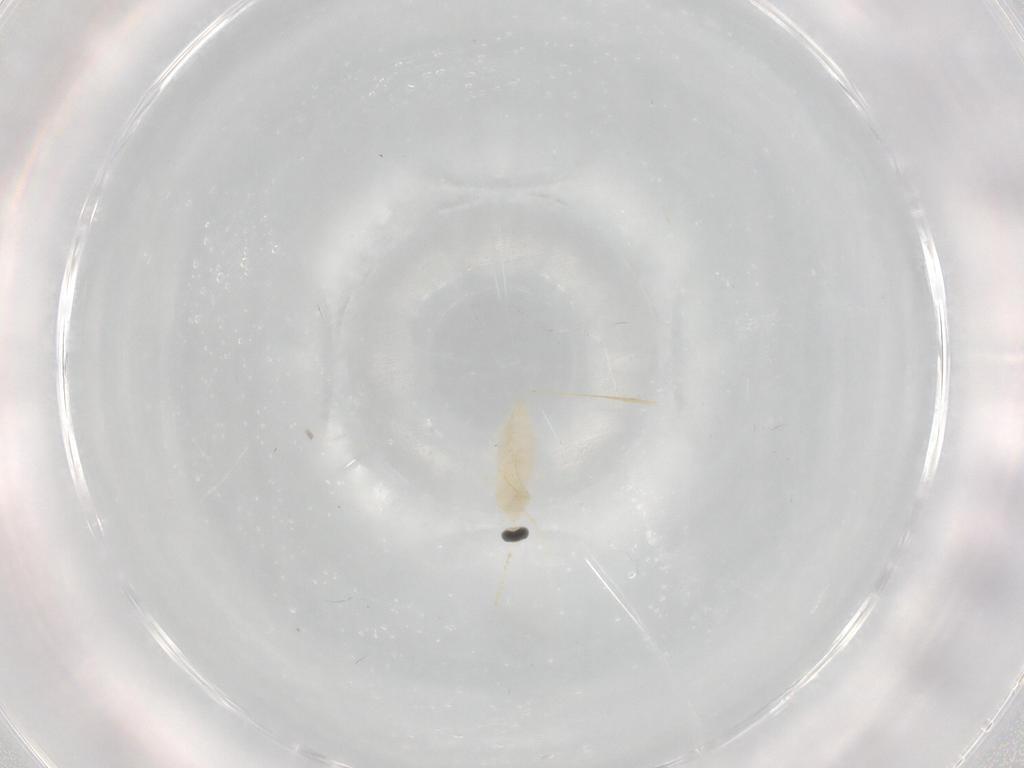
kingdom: Animalia
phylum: Arthropoda
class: Insecta
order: Diptera
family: Cecidomyiidae
